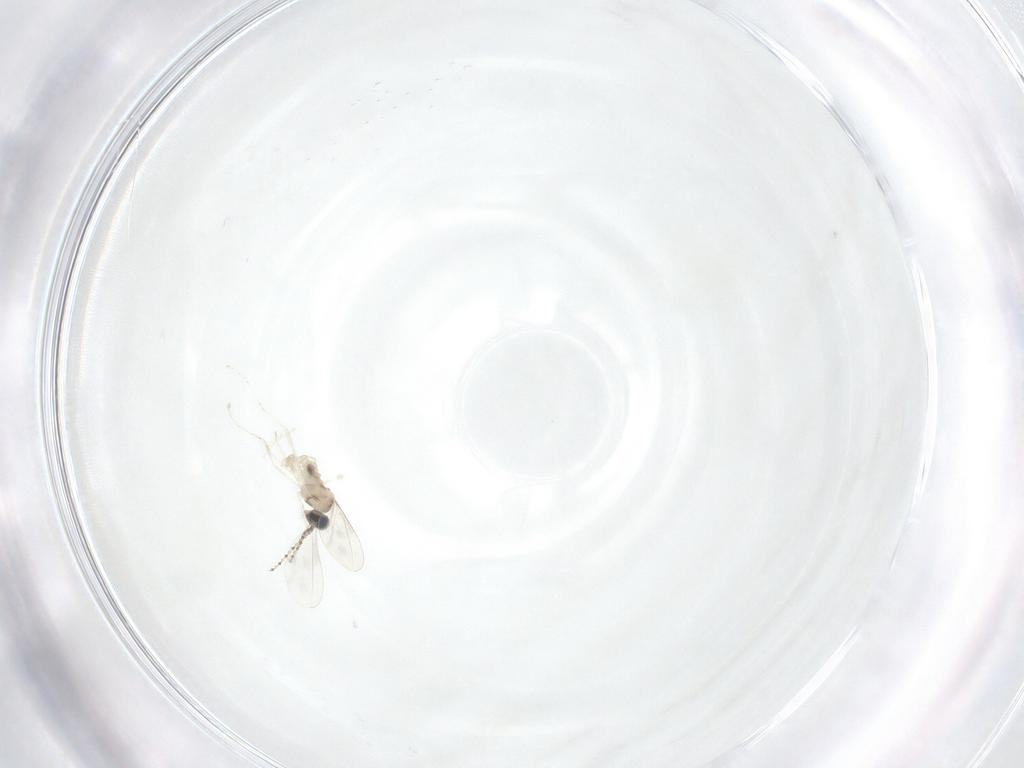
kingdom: Animalia
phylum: Arthropoda
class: Insecta
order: Diptera
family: Cecidomyiidae
